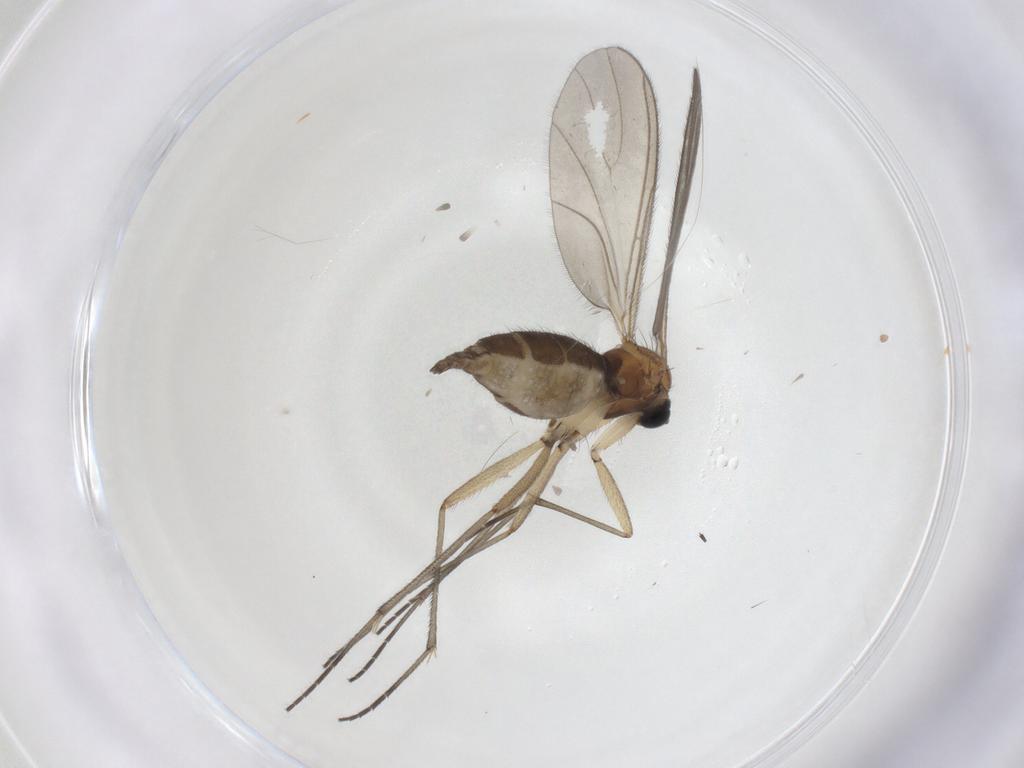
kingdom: Animalia
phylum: Arthropoda
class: Insecta
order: Diptera
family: Sciaridae
